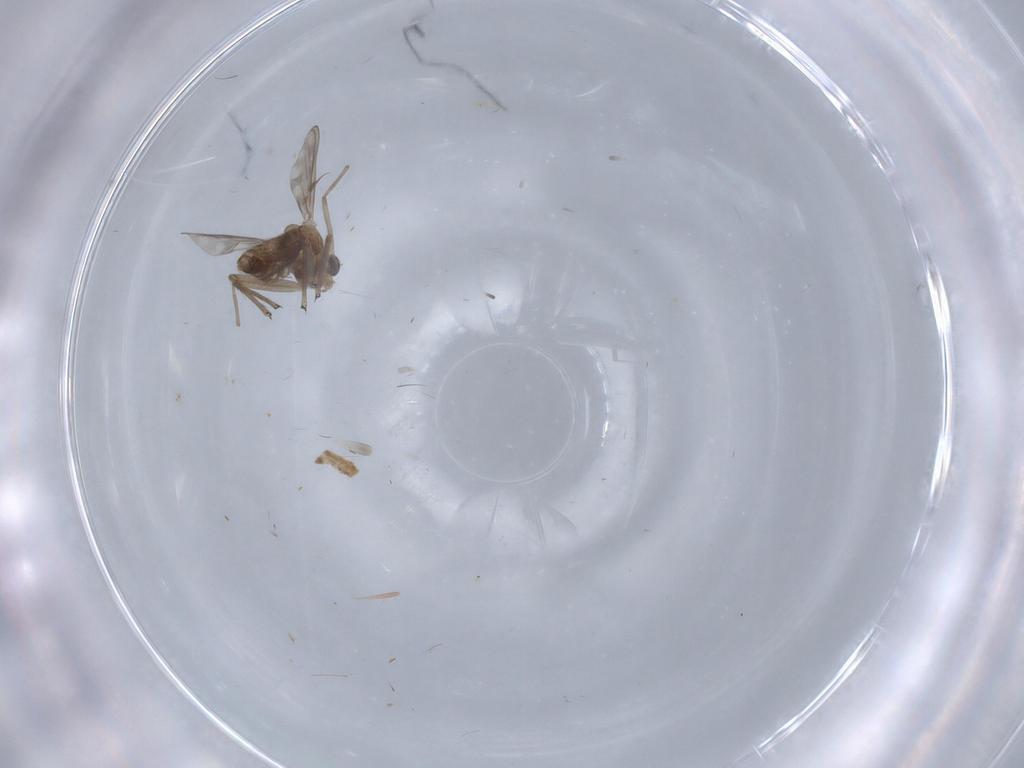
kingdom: Animalia
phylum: Arthropoda
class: Insecta
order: Diptera
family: Chironomidae
